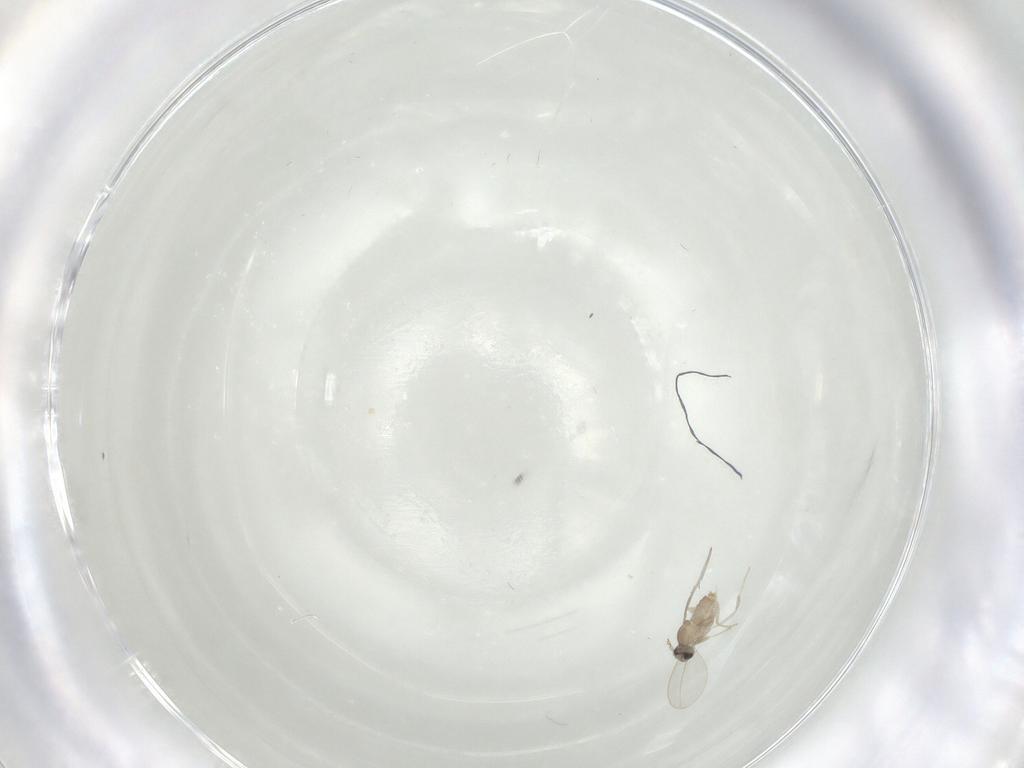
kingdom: Animalia
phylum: Arthropoda
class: Insecta
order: Diptera
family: Cecidomyiidae
